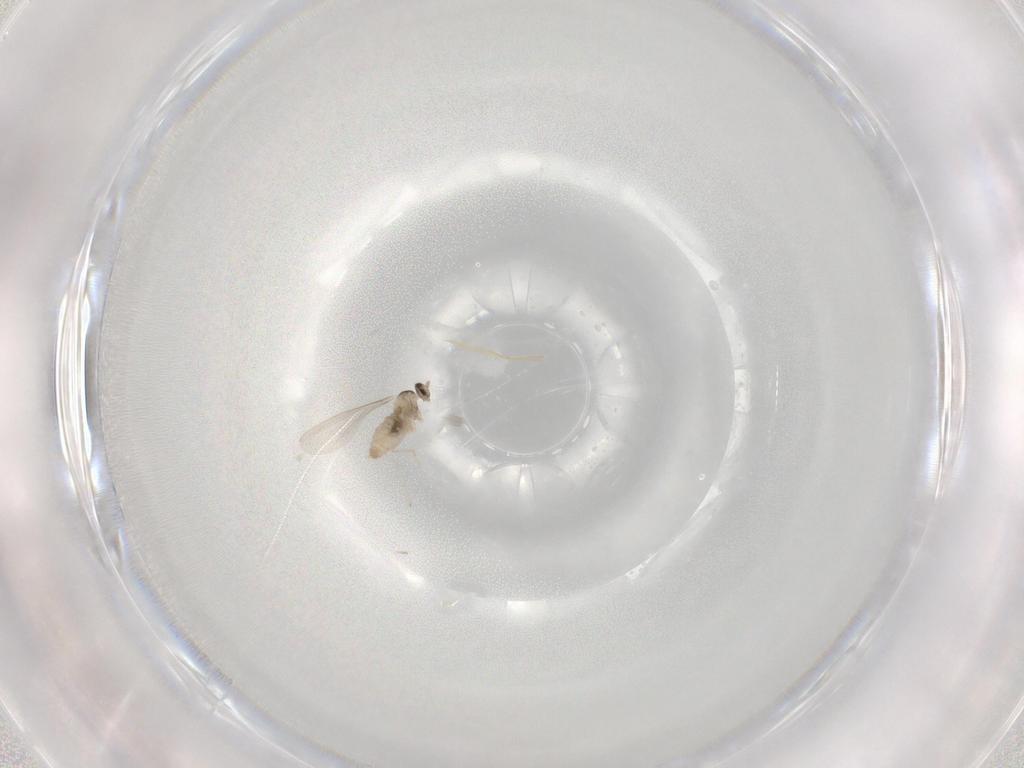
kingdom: Animalia
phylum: Arthropoda
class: Insecta
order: Diptera
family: Cecidomyiidae
